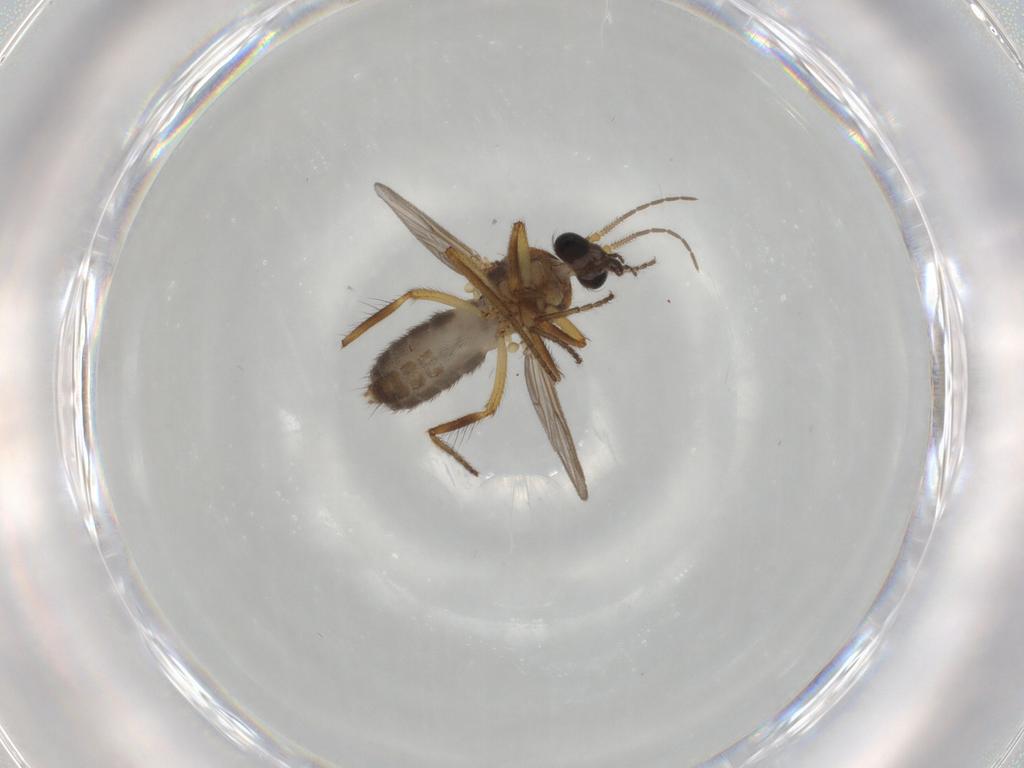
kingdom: Animalia
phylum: Arthropoda
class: Insecta
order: Diptera
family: Ceratopogonidae
